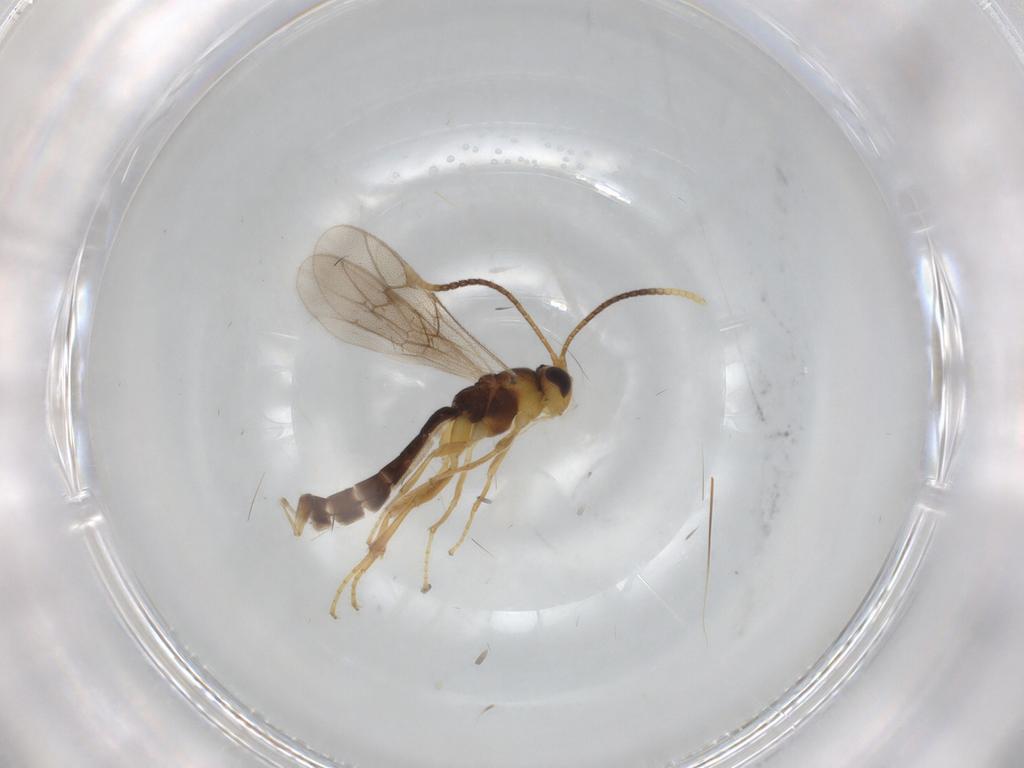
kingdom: Animalia
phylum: Arthropoda
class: Insecta
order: Hymenoptera
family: Ichneumonidae
